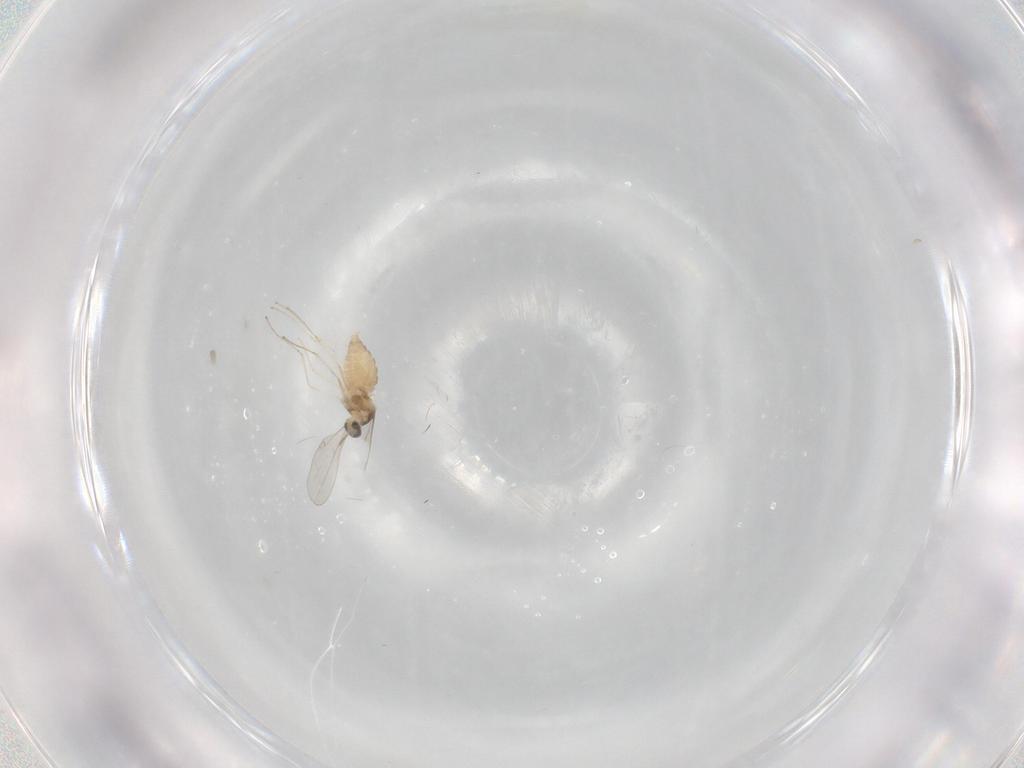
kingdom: Animalia
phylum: Arthropoda
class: Insecta
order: Diptera
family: Cecidomyiidae
